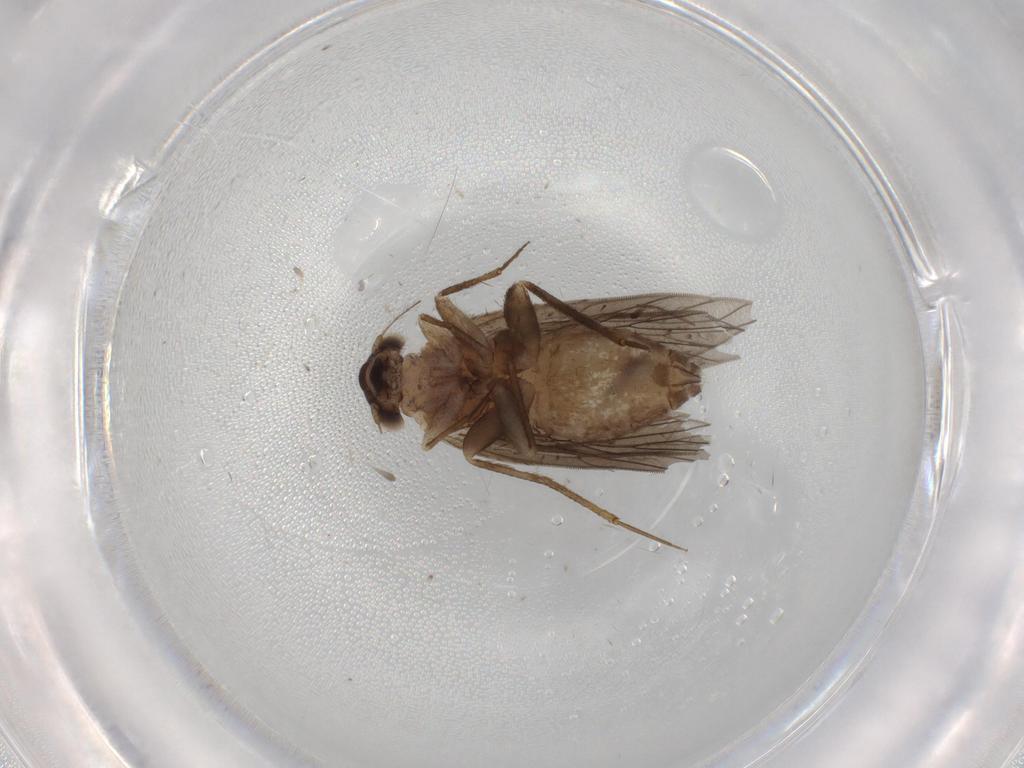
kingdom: Animalia
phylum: Arthropoda
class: Insecta
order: Psocodea
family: Lepidopsocidae
